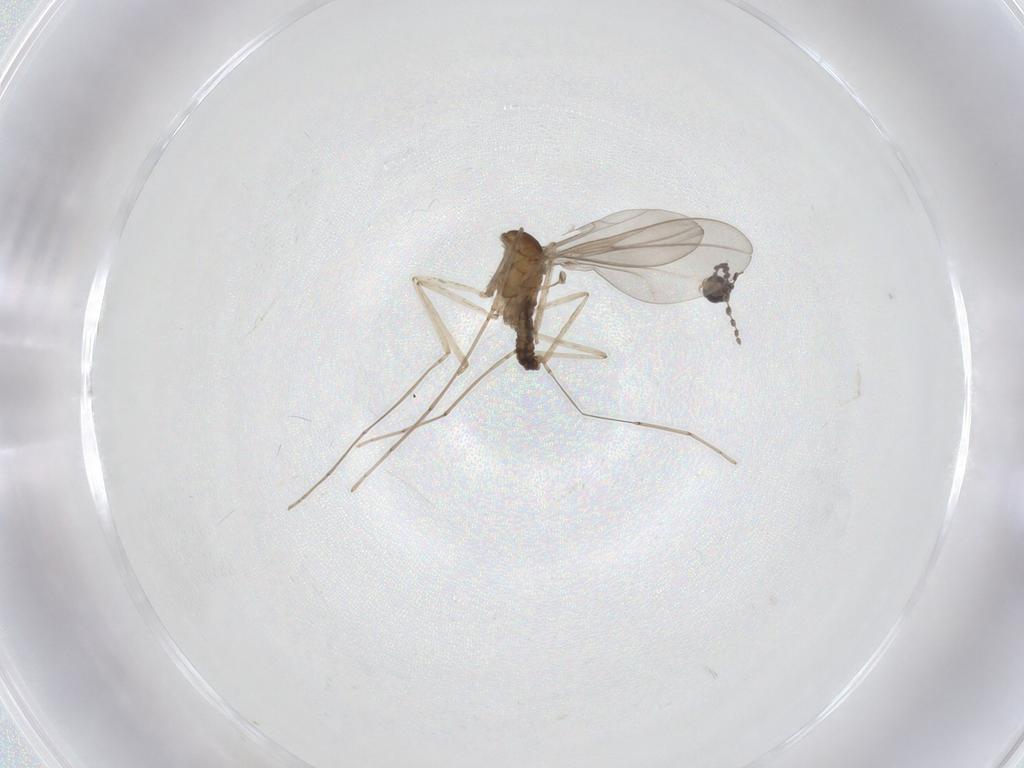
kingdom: Animalia
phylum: Arthropoda
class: Insecta
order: Diptera
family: Cecidomyiidae
